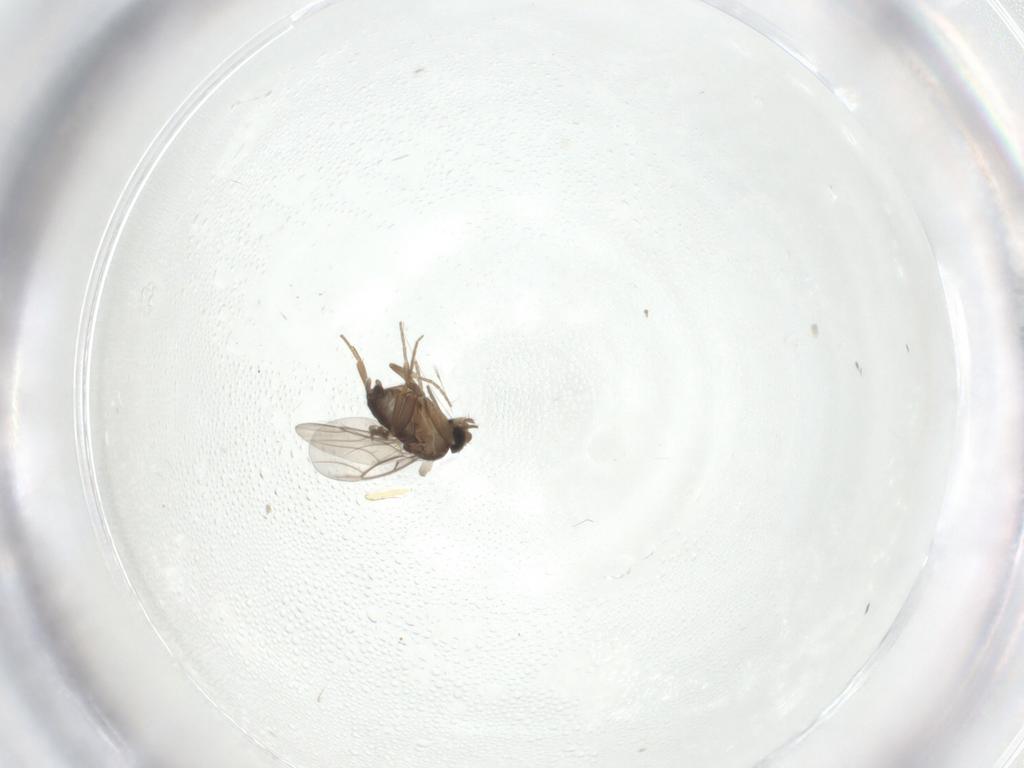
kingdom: Animalia
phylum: Arthropoda
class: Insecta
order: Diptera
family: Phoridae
